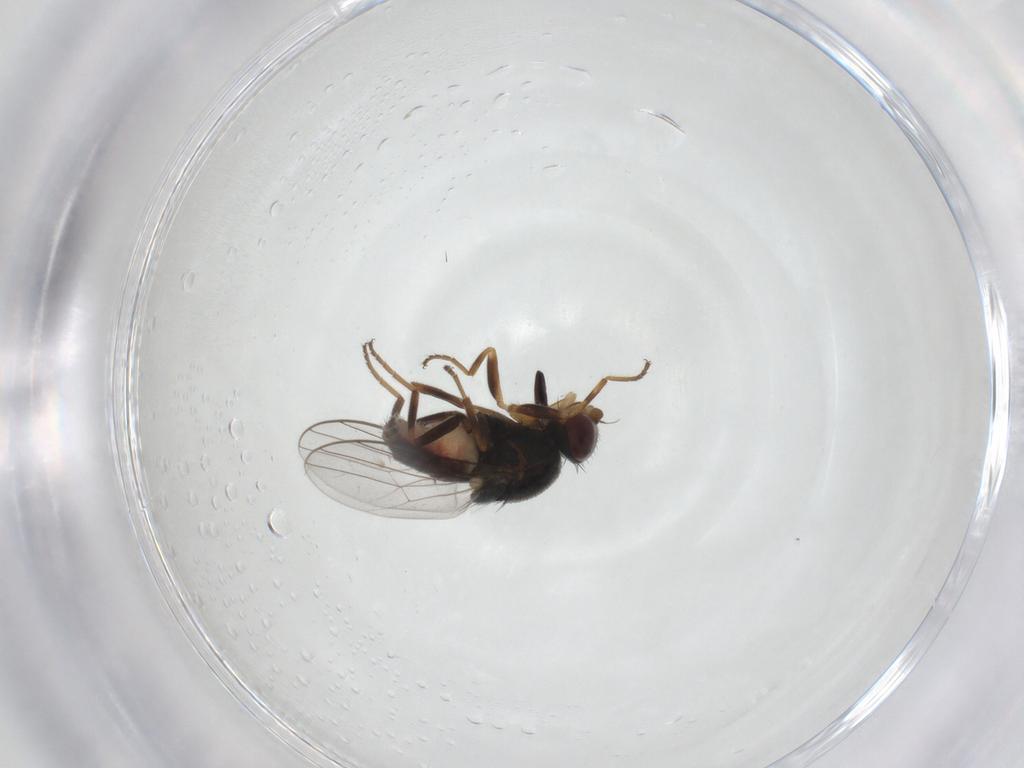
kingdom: Animalia
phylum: Arthropoda
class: Insecta
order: Diptera
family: Chloropidae
